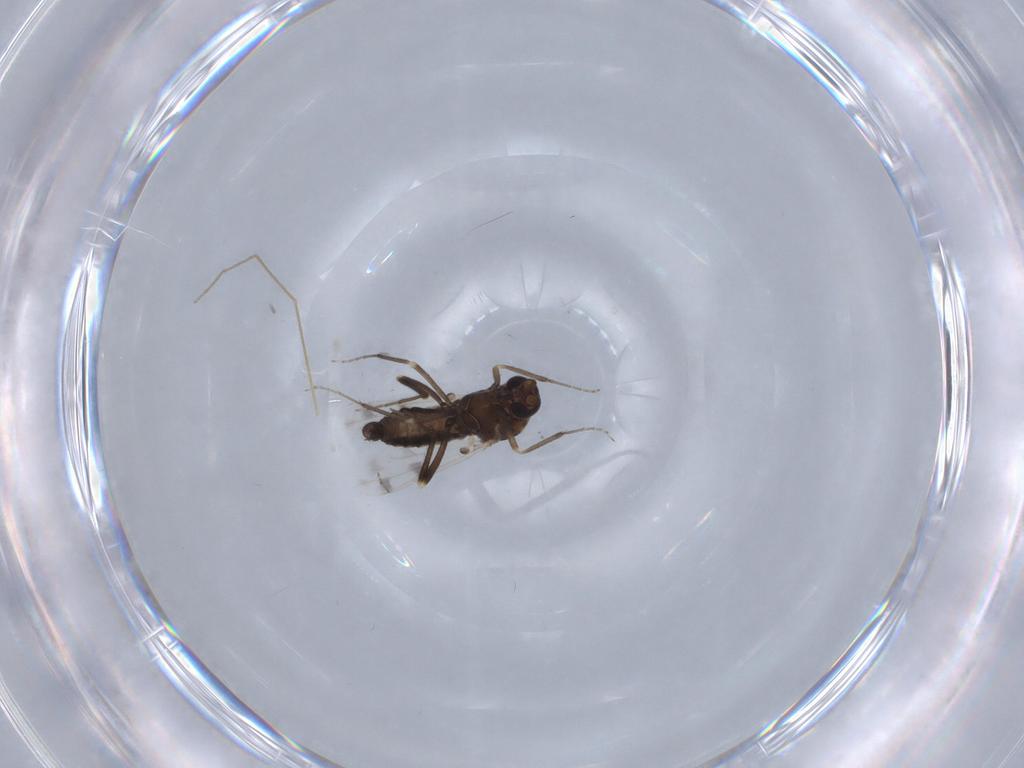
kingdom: Animalia
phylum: Arthropoda
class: Insecta
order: Diptera
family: Ceratopogonidae
